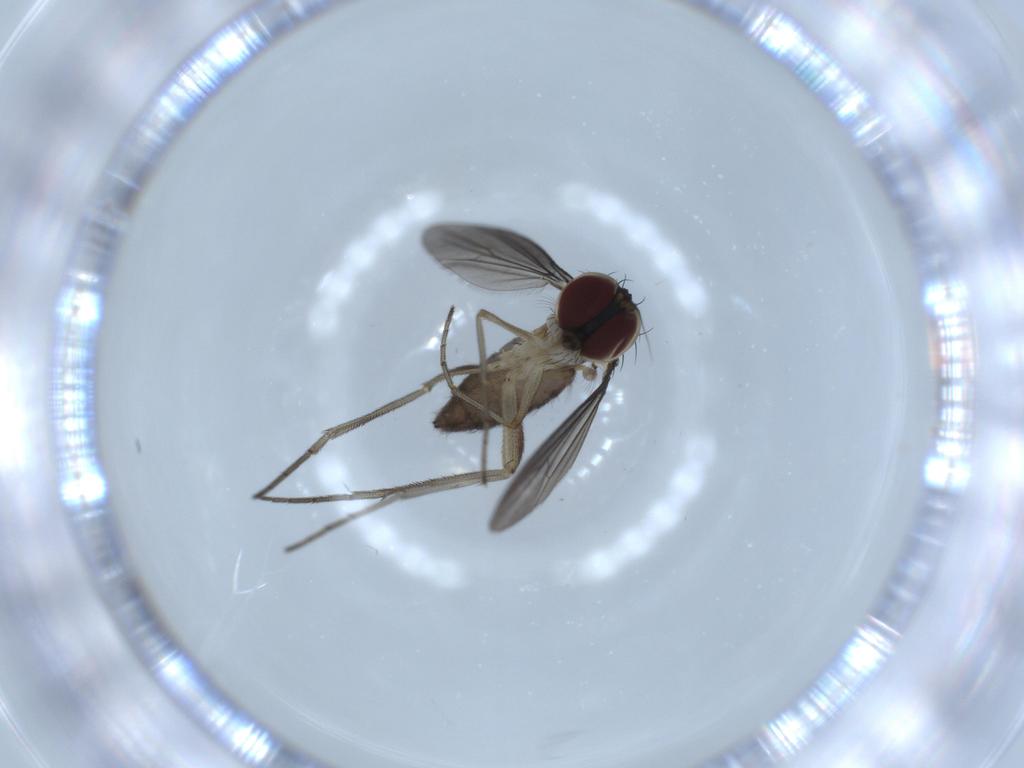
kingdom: Animalia
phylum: Arthropoda
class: Insecta
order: Diptera
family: Dolichopodidae
